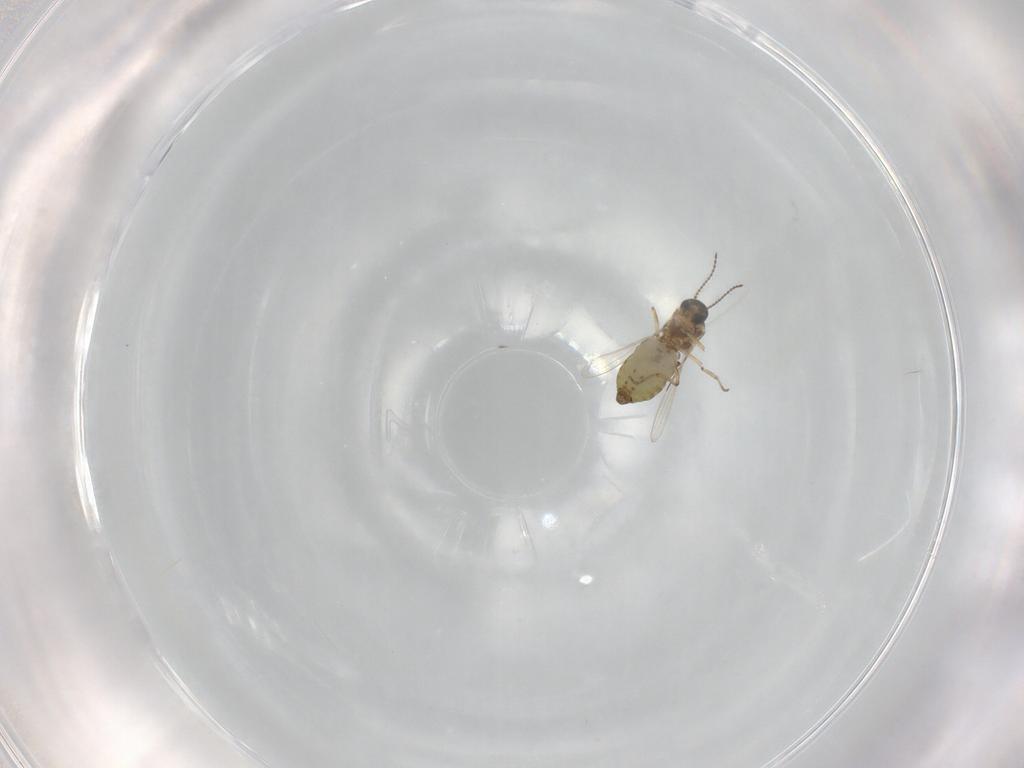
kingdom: Animalia
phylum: Arthropoda
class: Insecta
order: Diptera
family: Ceratopogonidae
